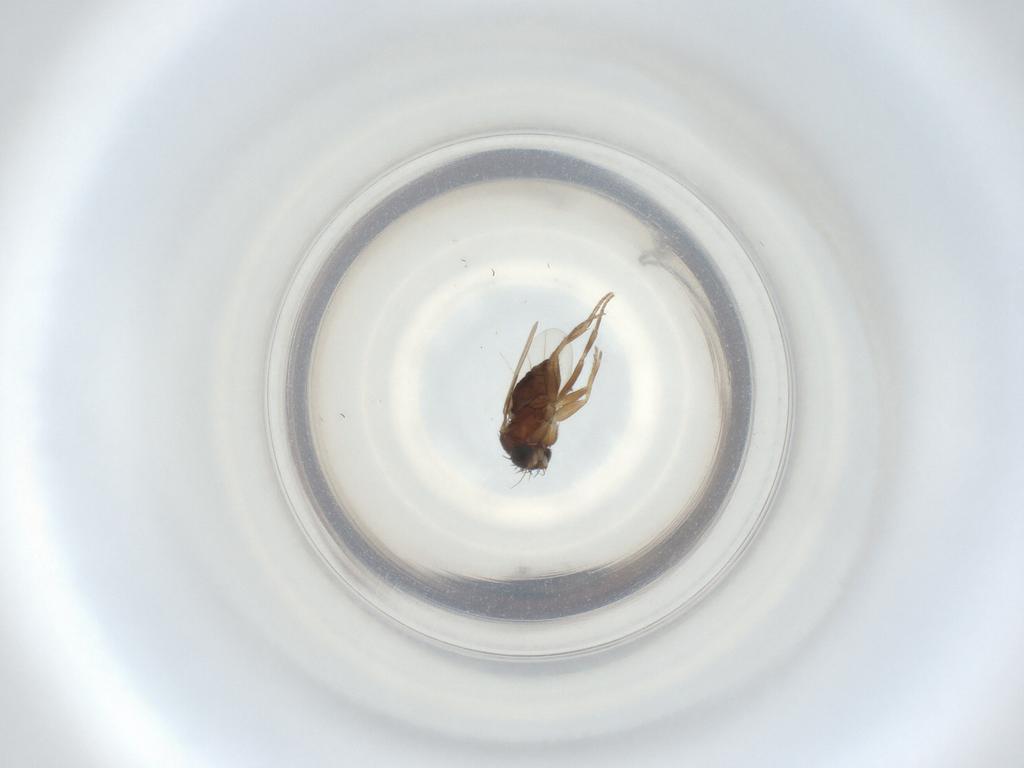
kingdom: Animalia
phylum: Arthropoda
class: Insecta
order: Diptera
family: Phoridae
